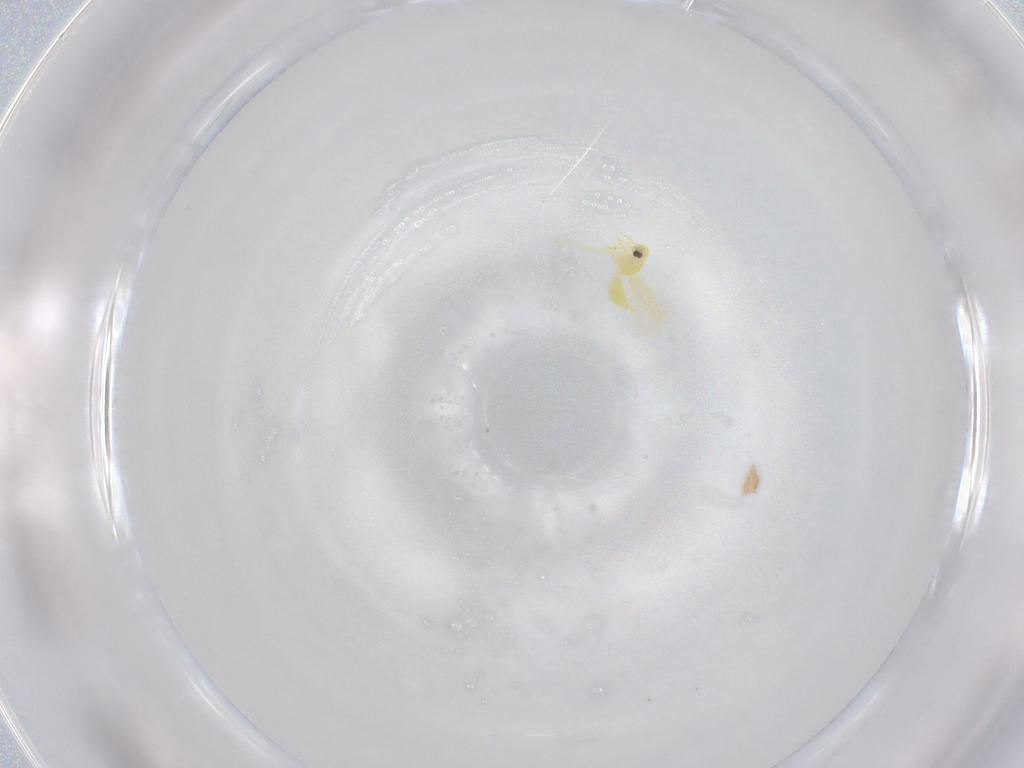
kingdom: Animalia
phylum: Arthropoda
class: Insecta
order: Hemiptera
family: Aleyrodidae
